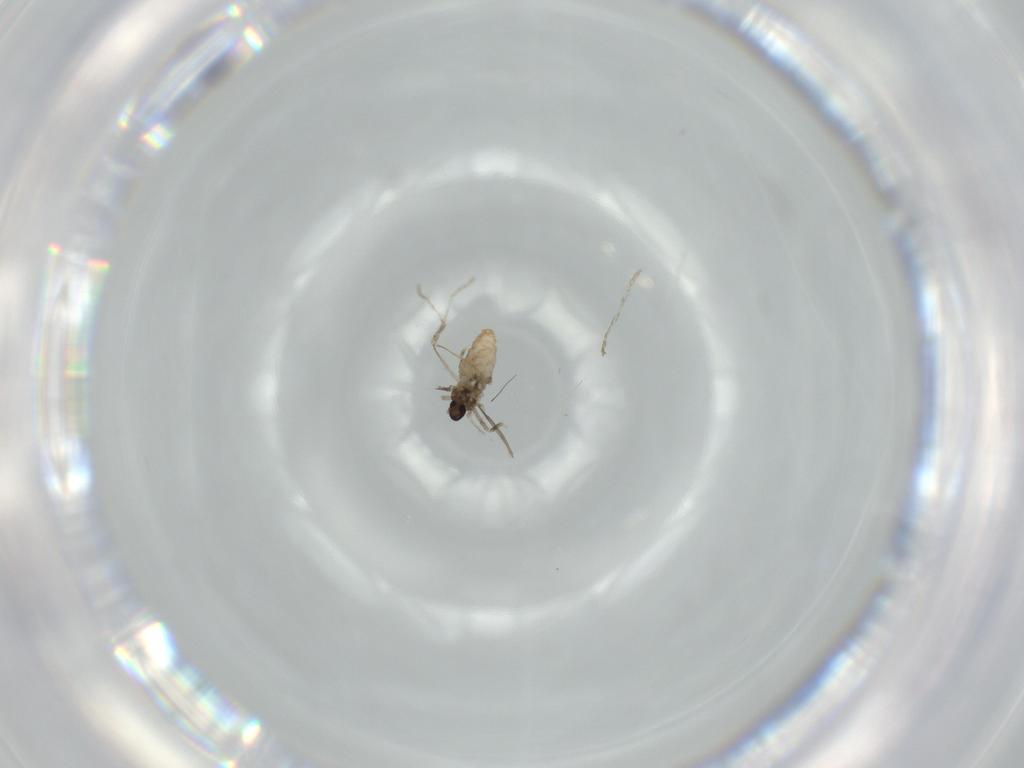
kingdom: Animalia
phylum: Arthropoda
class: Insecta
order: Diptera
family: Cecidomyiidae
